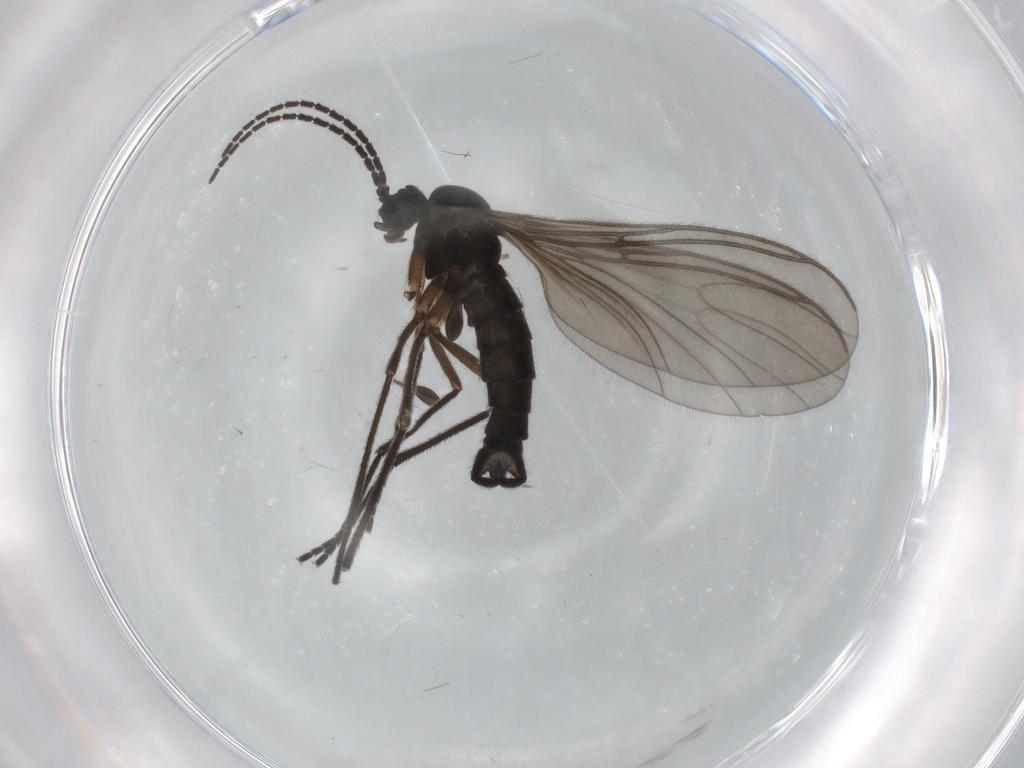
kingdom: Animalia
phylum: Arthropoda
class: Insecta
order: Diptera
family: Sciaridae
